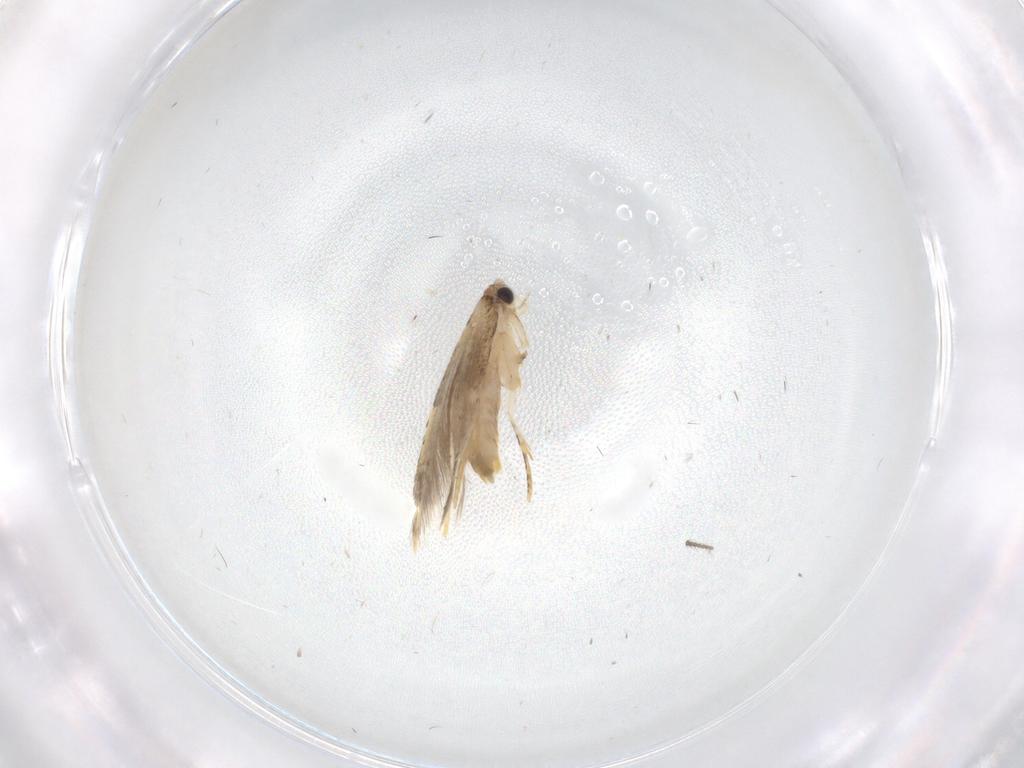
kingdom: Animalia
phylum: Arthropoda
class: Insecta
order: Lepidoptera
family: Tineidae
